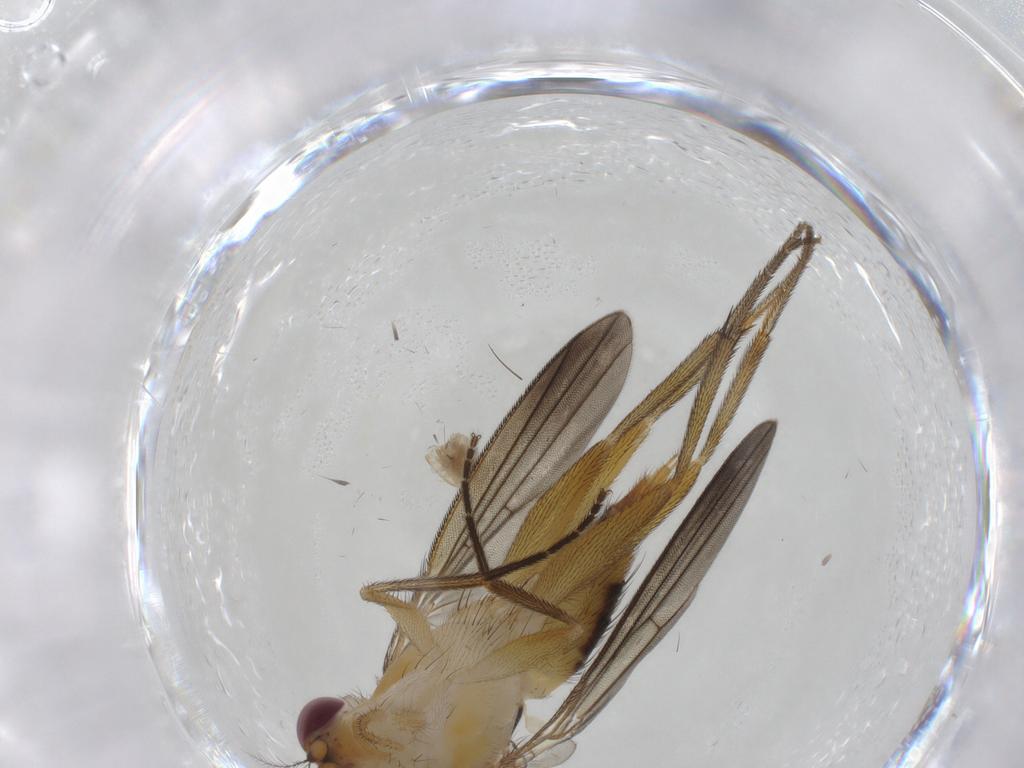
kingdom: Animalia
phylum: Arthropoda
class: Insecta
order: Diptera
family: Clusiidae
